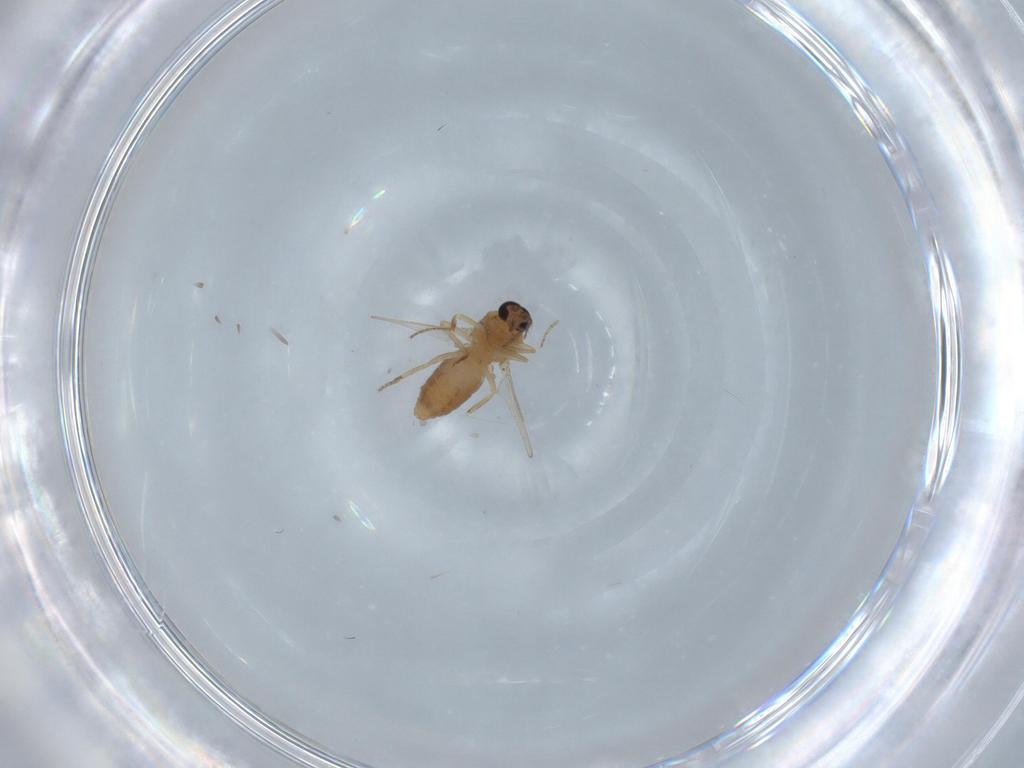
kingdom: Animalia
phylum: Arthropoda
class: Insecta
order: Diptera
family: Ceratopogonidae
